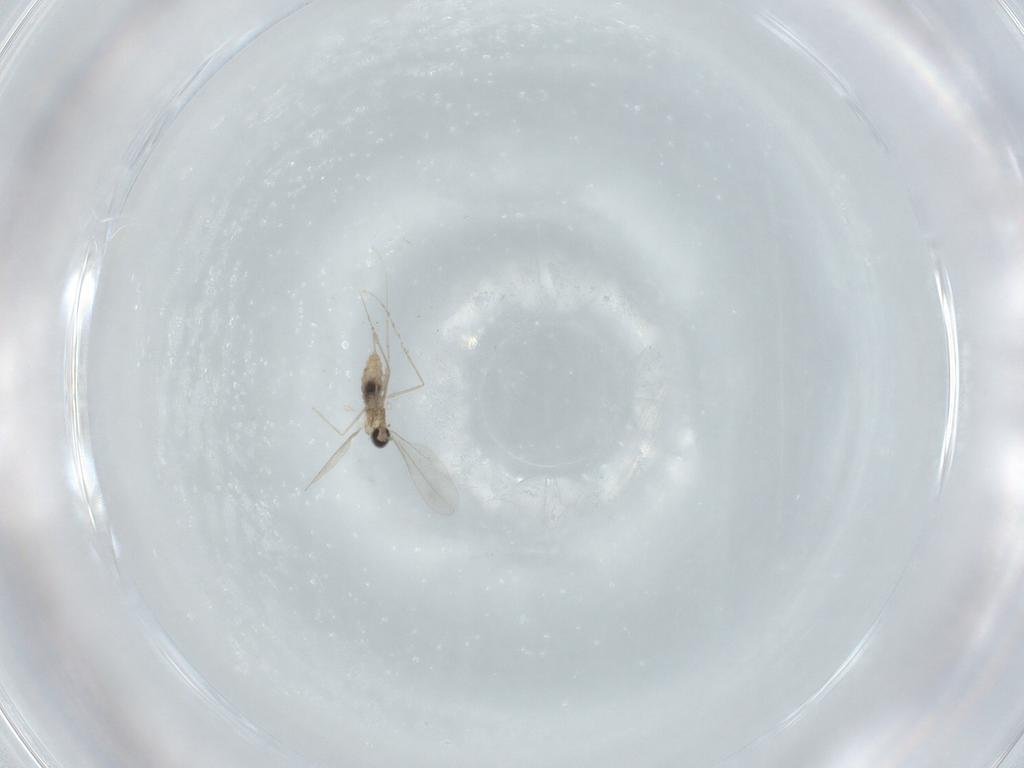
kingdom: Animalia
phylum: Arthropoda
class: Insecta
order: Diptera
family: Cecidomyiidae
